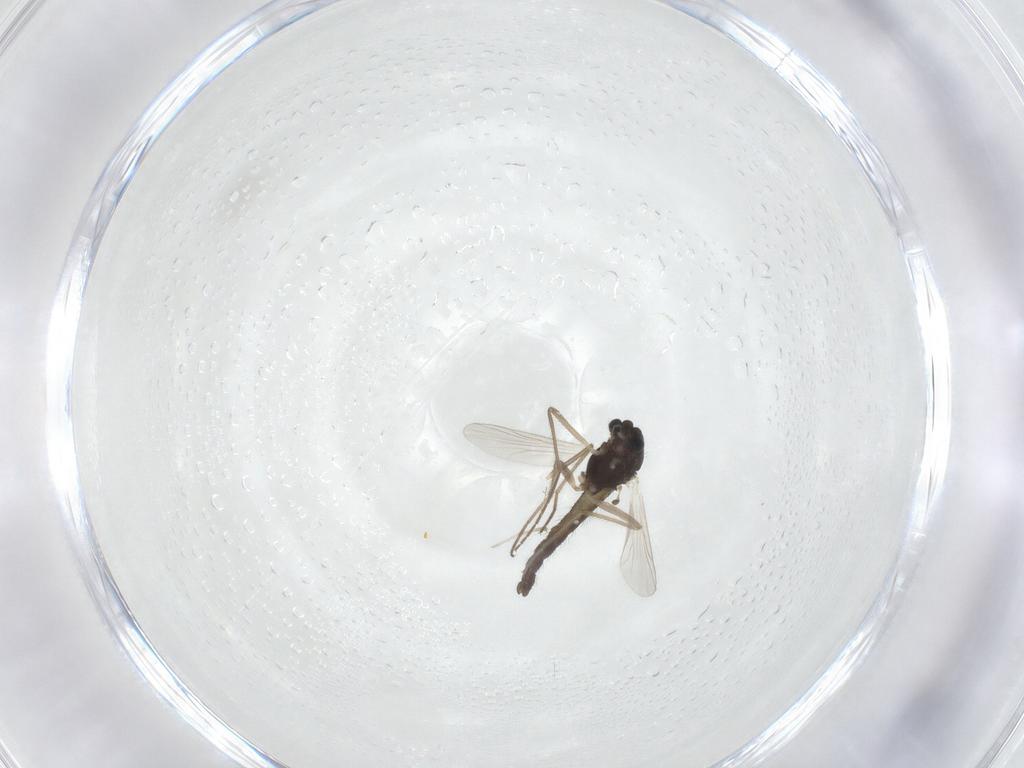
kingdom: Animalia
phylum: Arthropoda
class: Insecta
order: Diptera
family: Chironomidae
